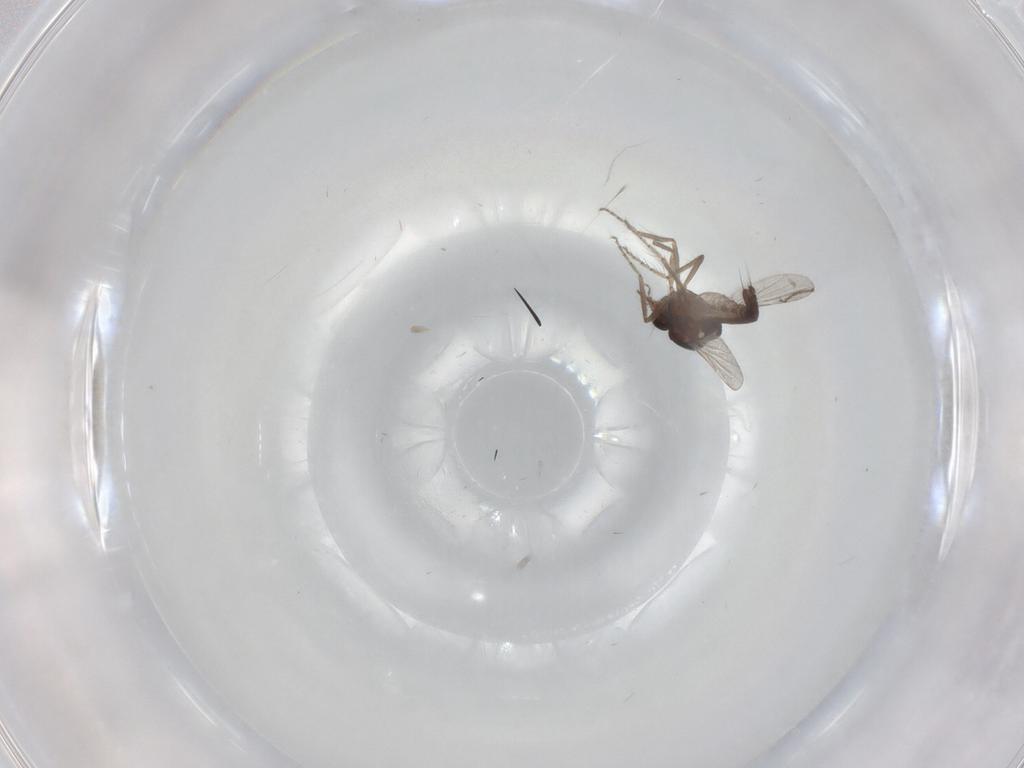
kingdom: Animalia
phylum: Arthropoda
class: Insecta
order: Diptera
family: Ceratopogonidae
